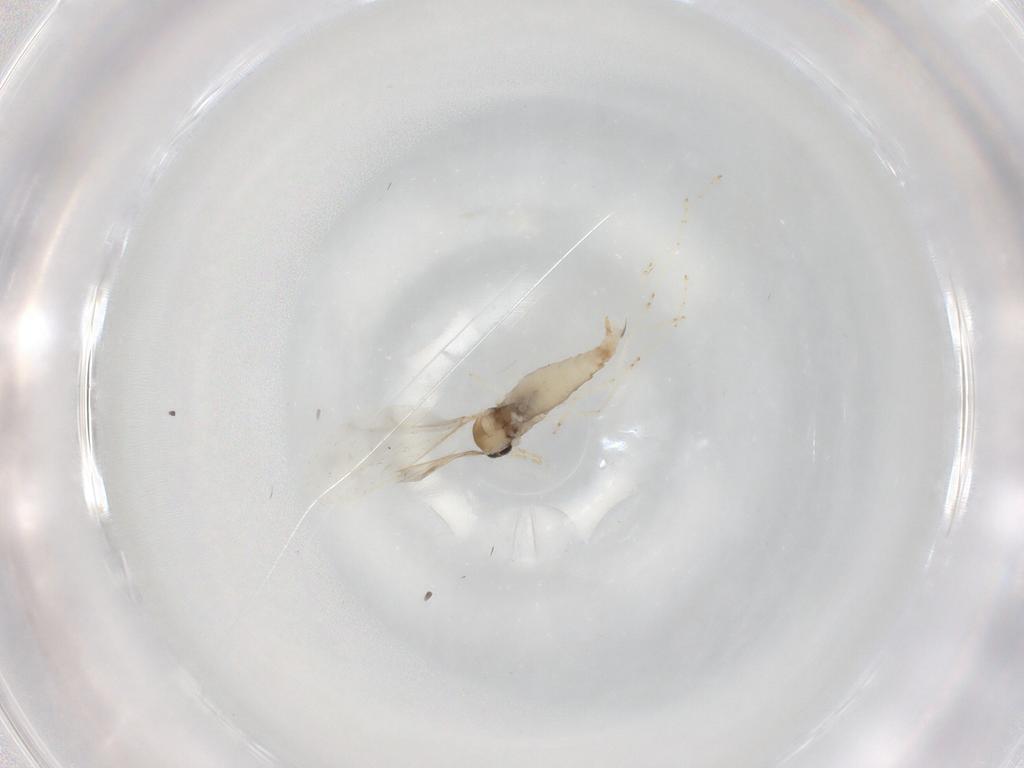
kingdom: Animalia
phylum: Arthropoda
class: Insecta
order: Diptera
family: Cecidomyiidae
